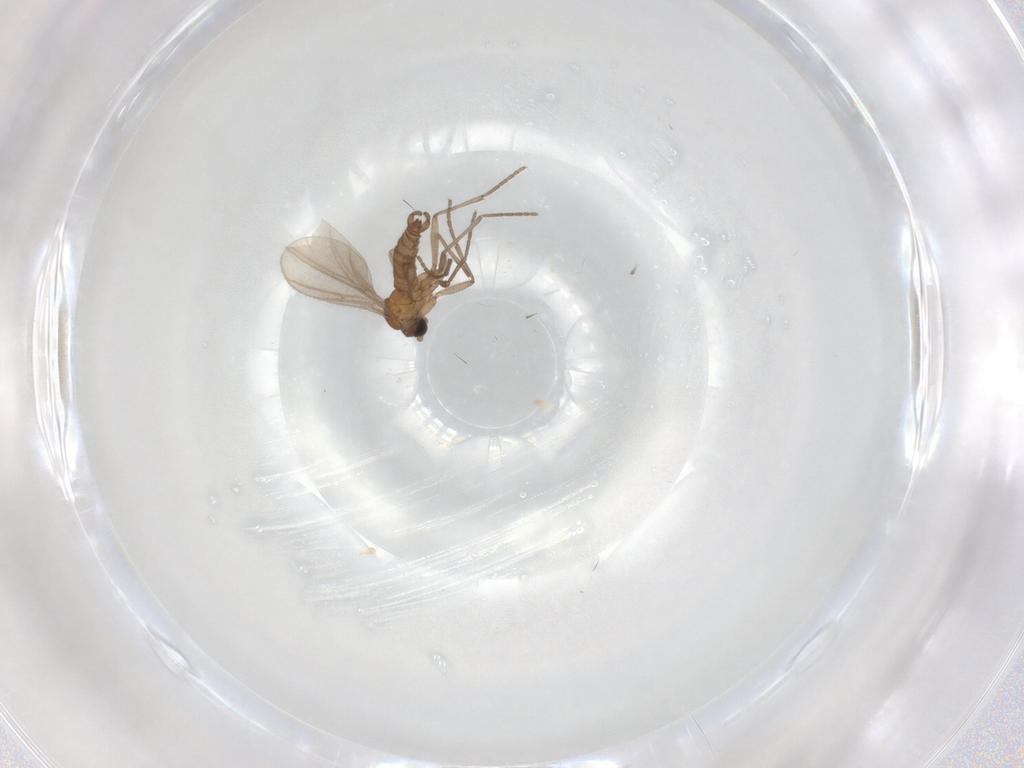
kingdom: Animalia
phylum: Arthropoda
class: Insecta
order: Diptera
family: Sciaridae
